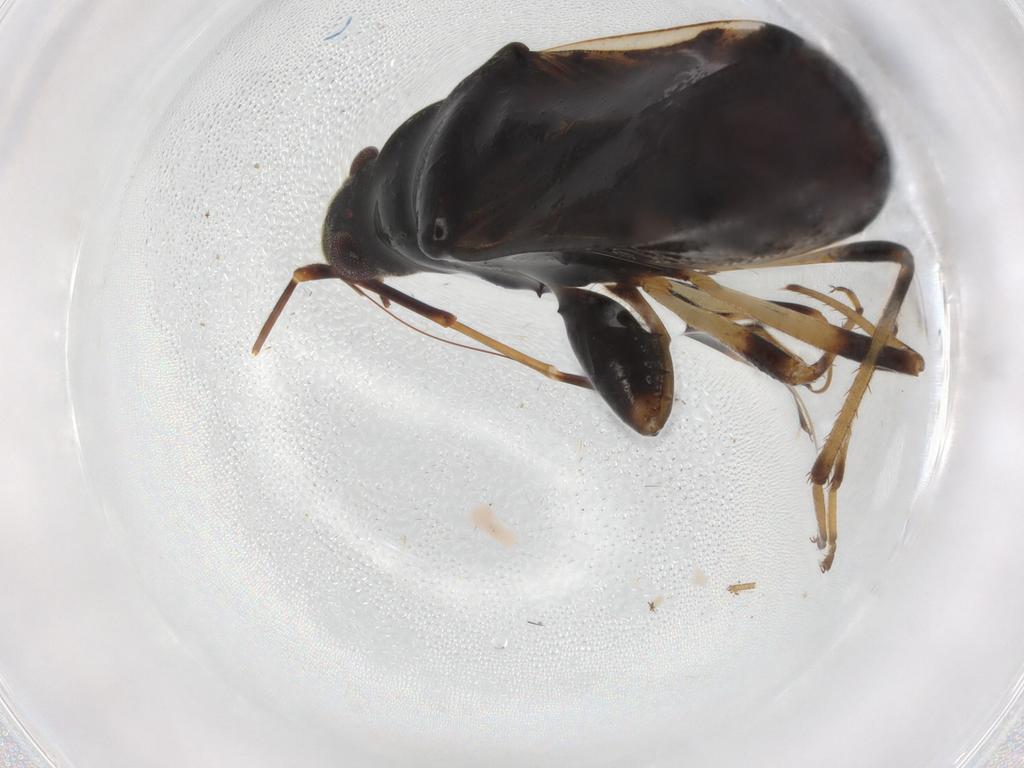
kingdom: Animalia
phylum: Arthropoda
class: Insecta
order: Hemiptera
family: Rhyparochromidae
